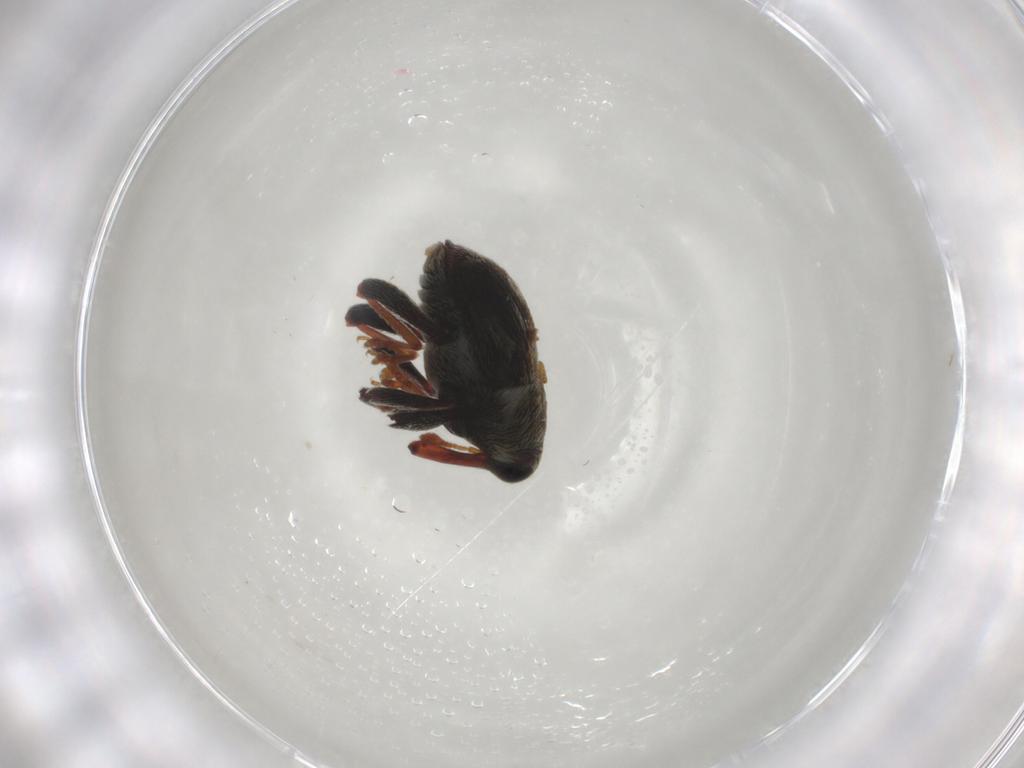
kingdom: Animalia
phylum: Arthropoda
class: Insecta
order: Coleoptera
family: Curculionidae
